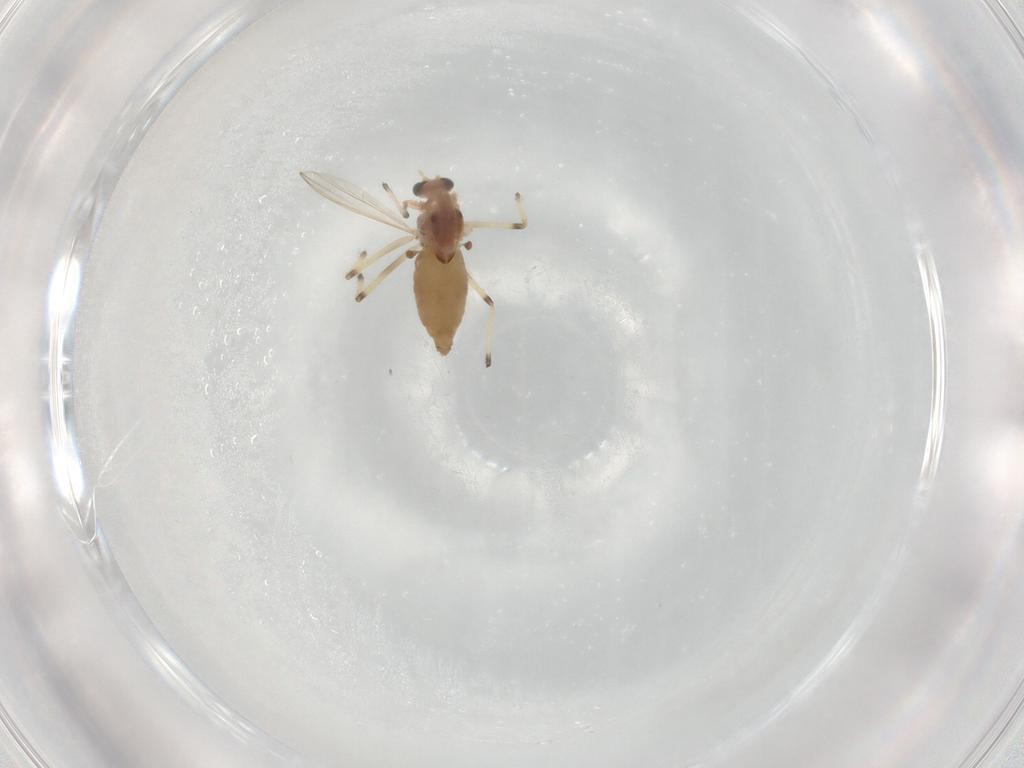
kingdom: Animalia
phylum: Arthropoda
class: Insecta
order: Diptera
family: Chironomidae
